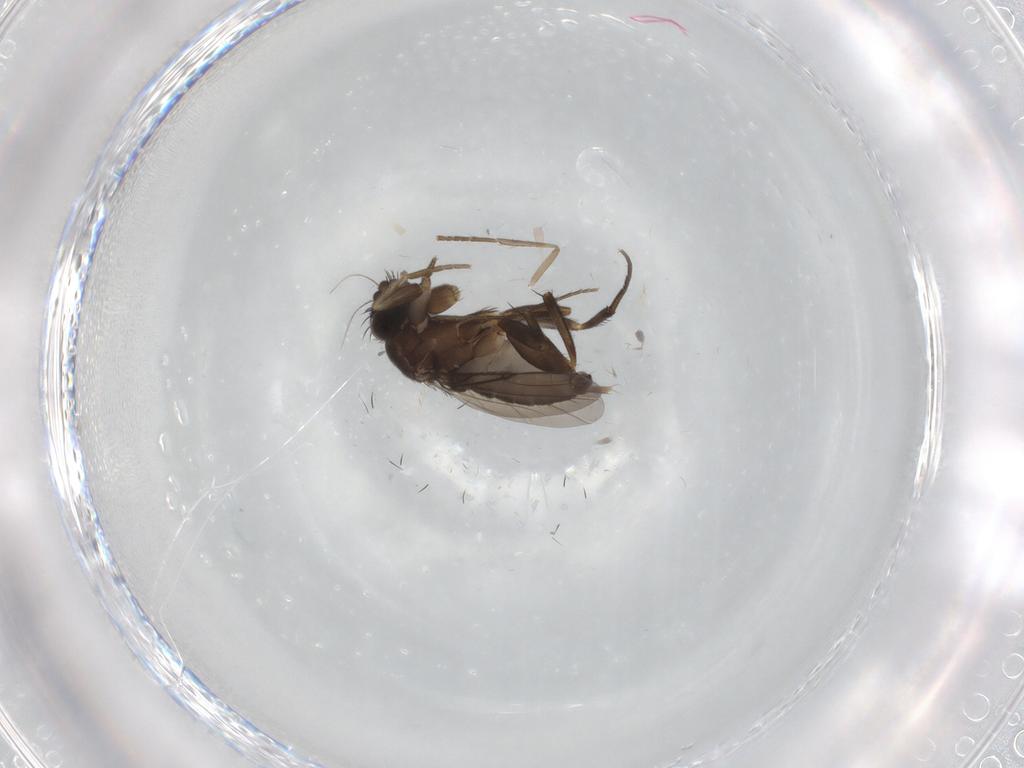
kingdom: Animalia
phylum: Arthropoda
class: Insecta
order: Diptera
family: Phoridae
